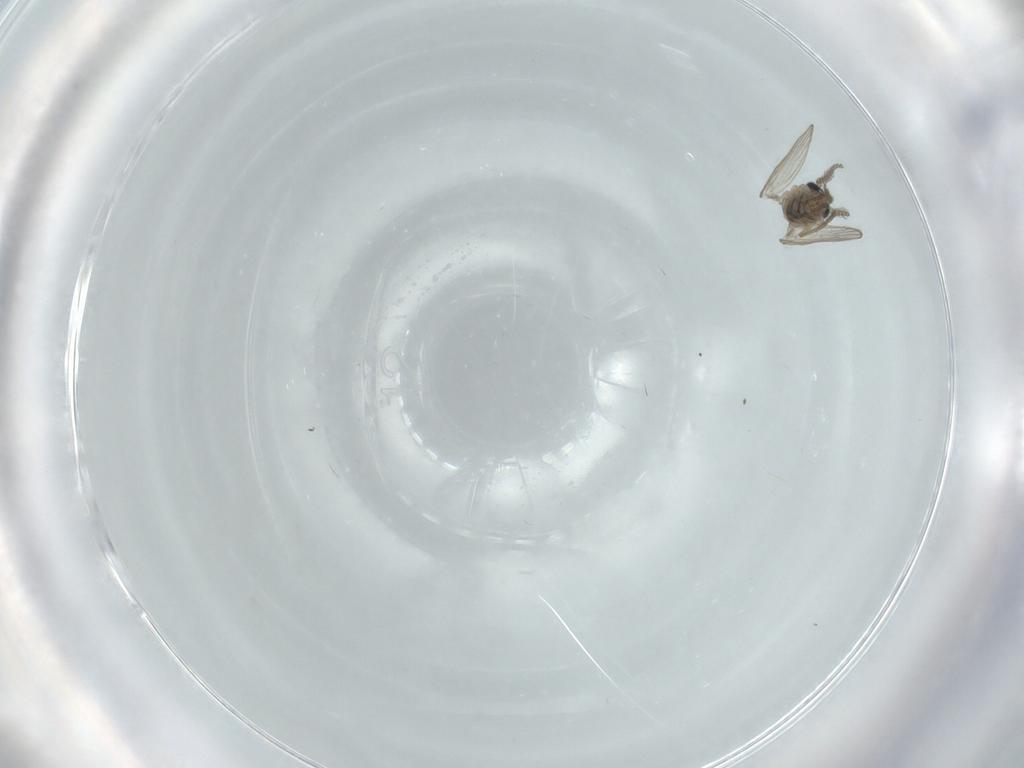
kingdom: Animalia
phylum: Arthropoda
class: Insecta
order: Diptera
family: Psychodidae
